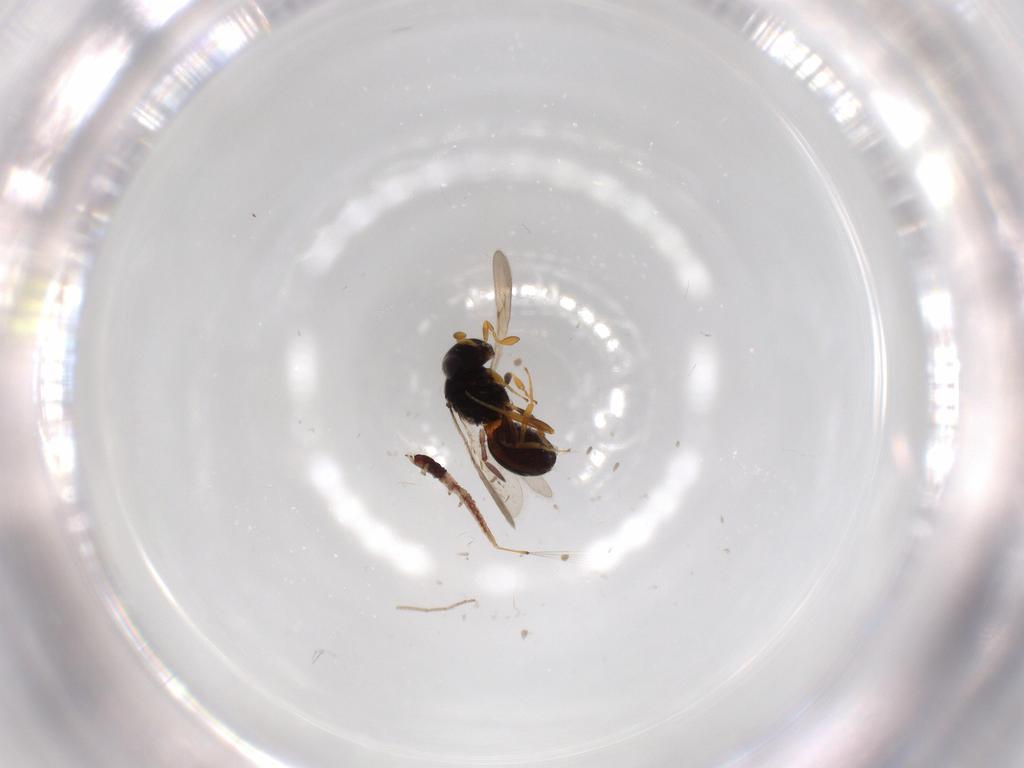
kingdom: Animalia
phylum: Arthropoda
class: Insecta
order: Hymenoptera
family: Scelionidae
